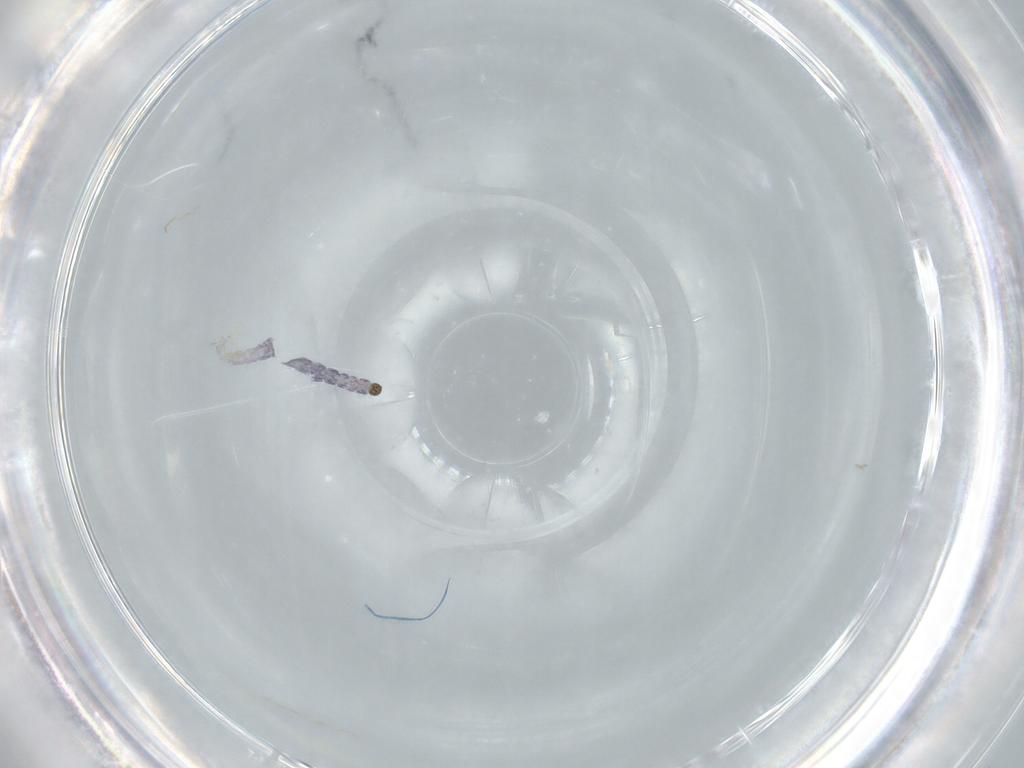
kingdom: Animalia
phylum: Arthropoda
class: Insecta
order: Diptera
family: Chironomidae
